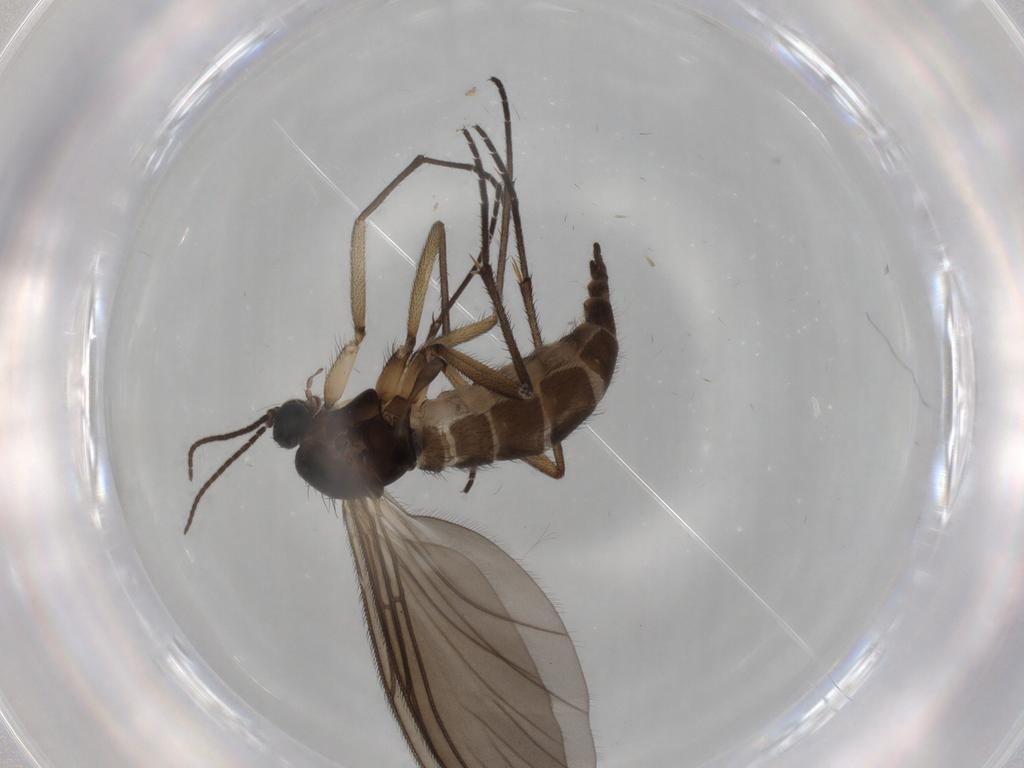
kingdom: Animalia
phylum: Arthropoda
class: Insecta
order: Diptera
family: Sciaridae
